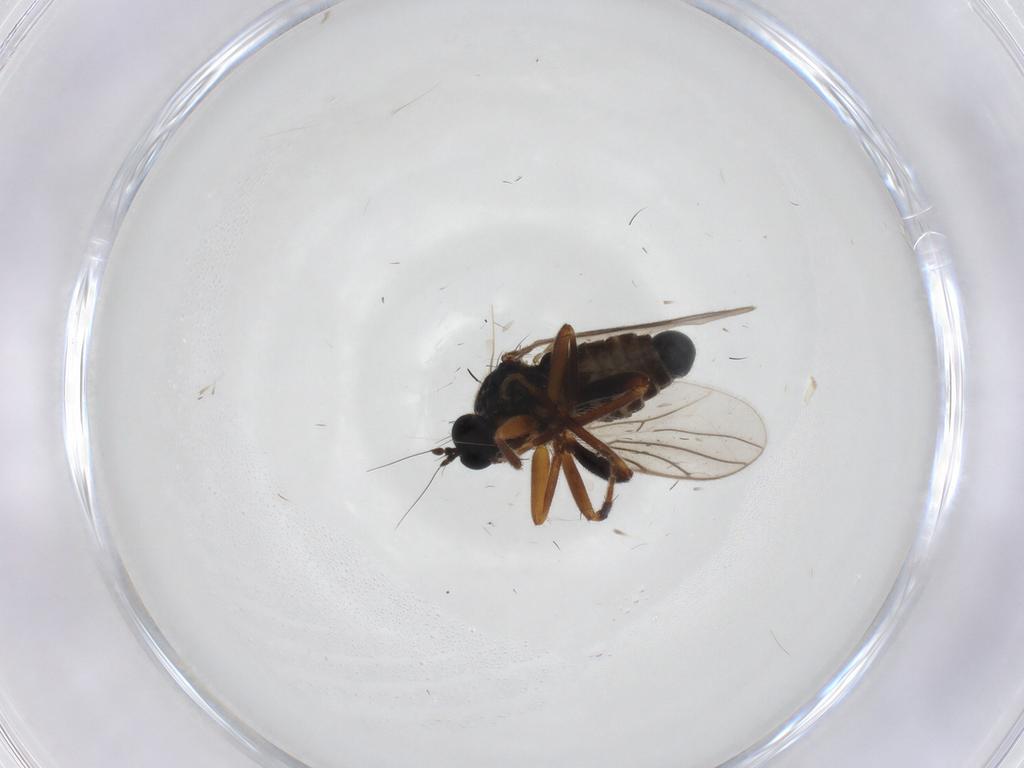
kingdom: Animalia
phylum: Arthropoda
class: Insecta
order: Diptera
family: Hybotidae
